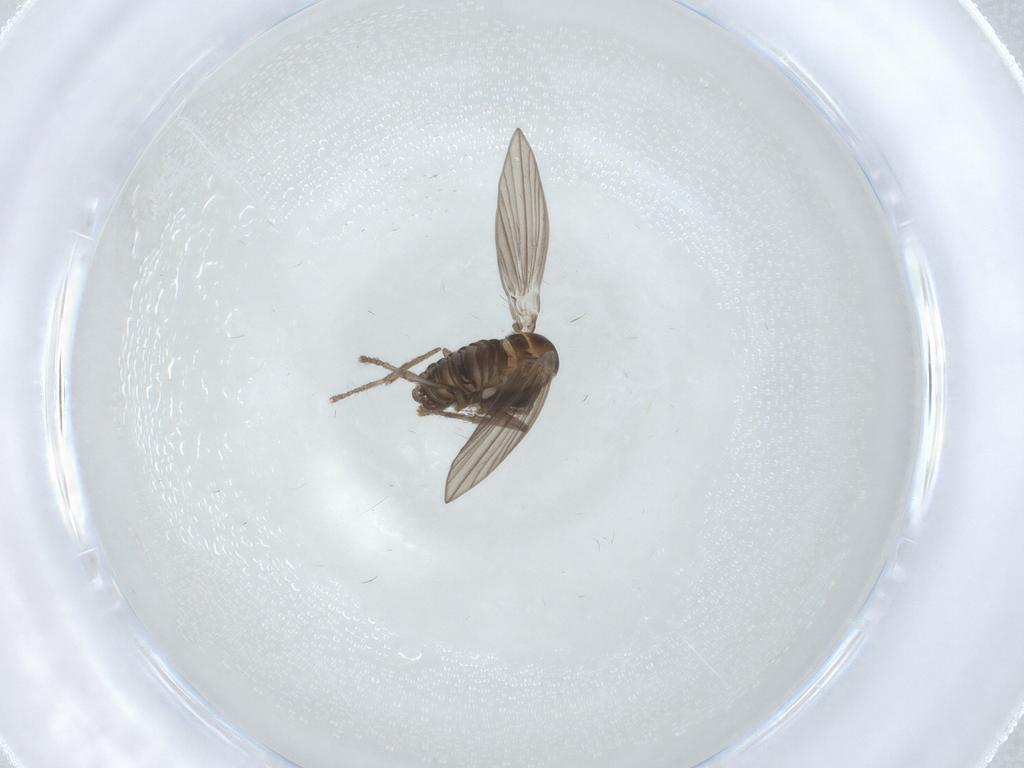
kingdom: Animalia
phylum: Arthropoda
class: Insecta
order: Diptera
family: Psychodidae
